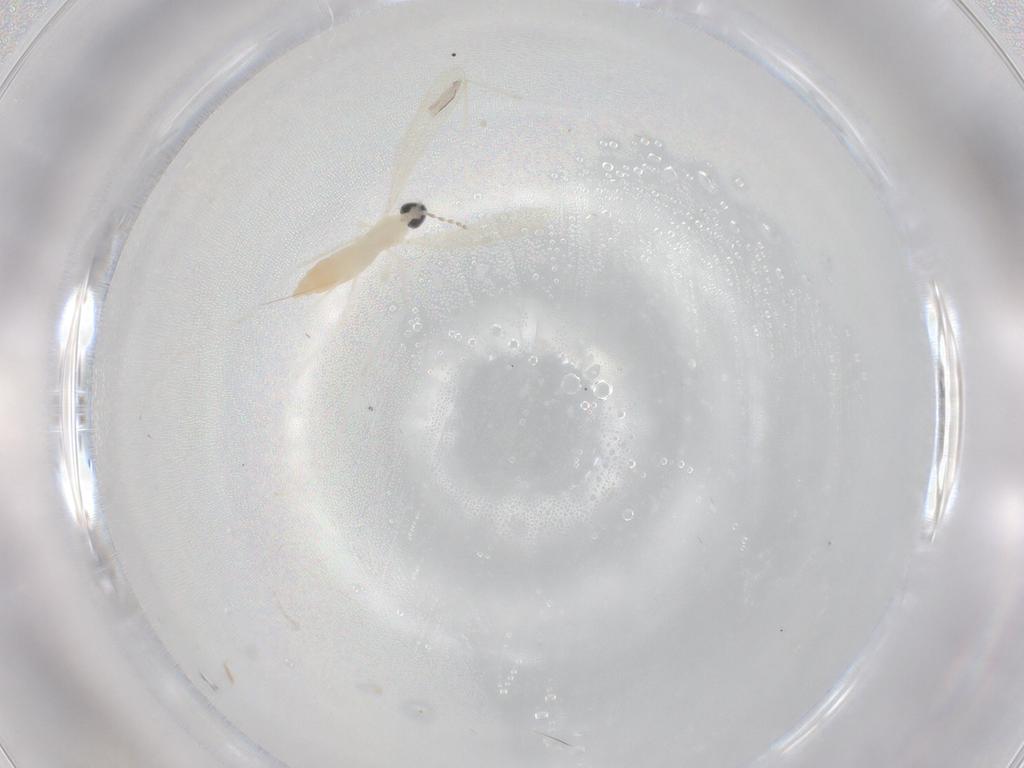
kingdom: Animalia
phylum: Arthropoda
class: Insecta
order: Diptera
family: Cecidomyiidae
